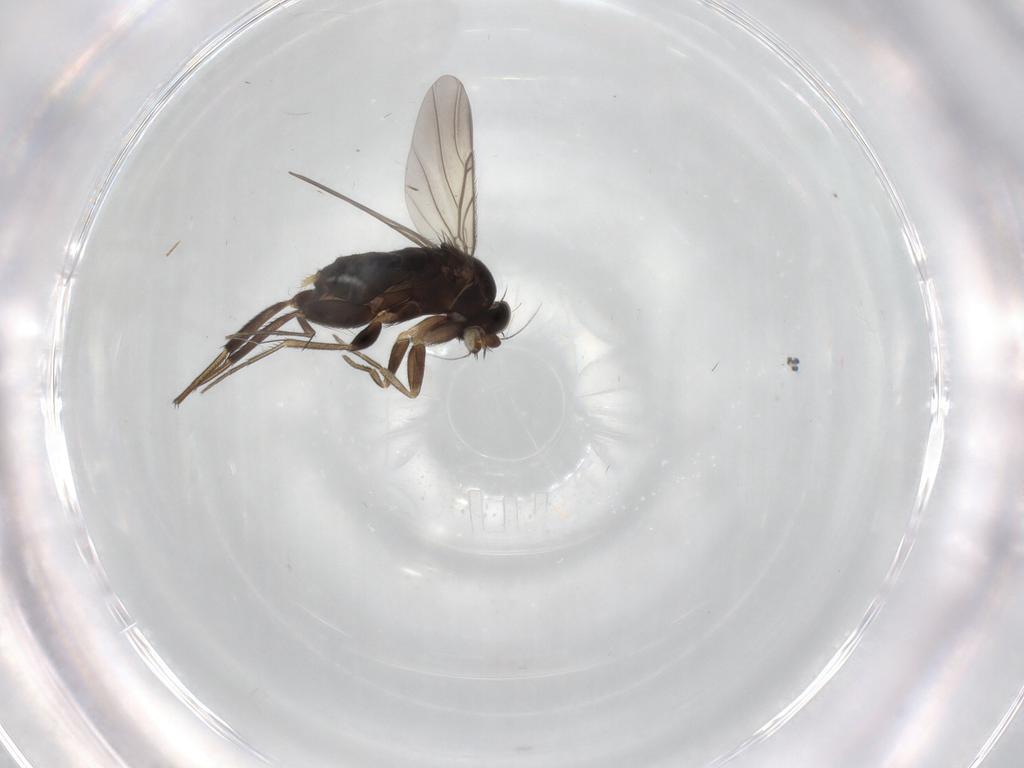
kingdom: Animalia
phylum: Arthropoda
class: Insecta
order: Diptera
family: Phoridae
